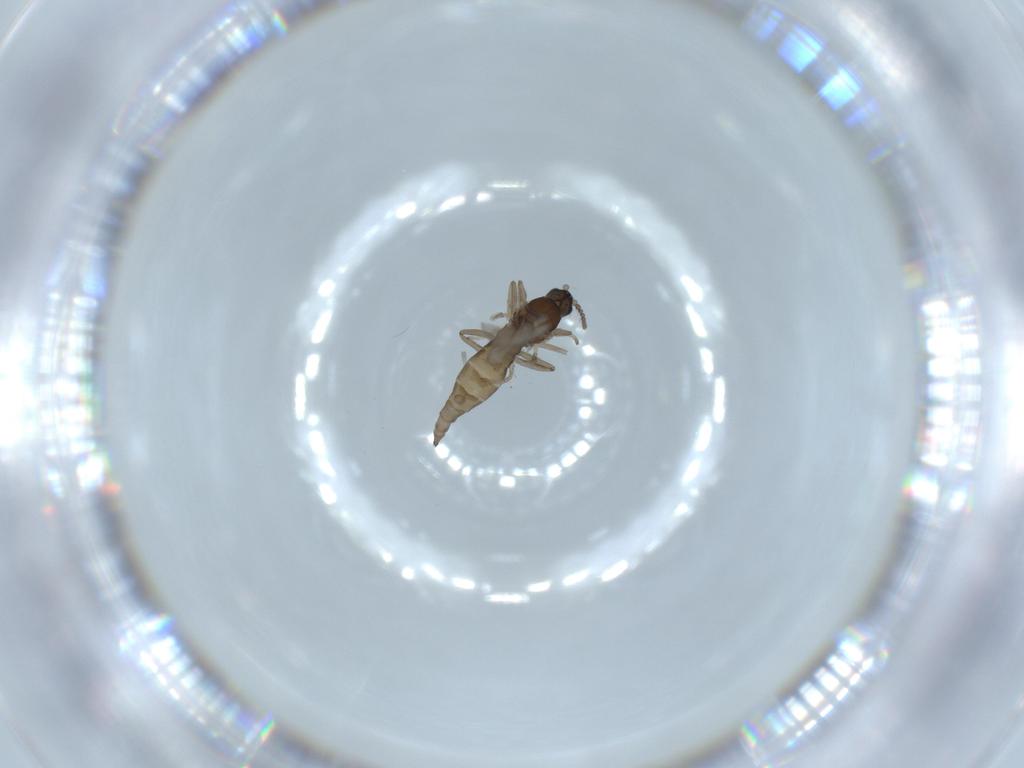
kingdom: Animalia
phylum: Arthropoda
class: Insecta
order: Diptera
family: Cecidomyiidae
